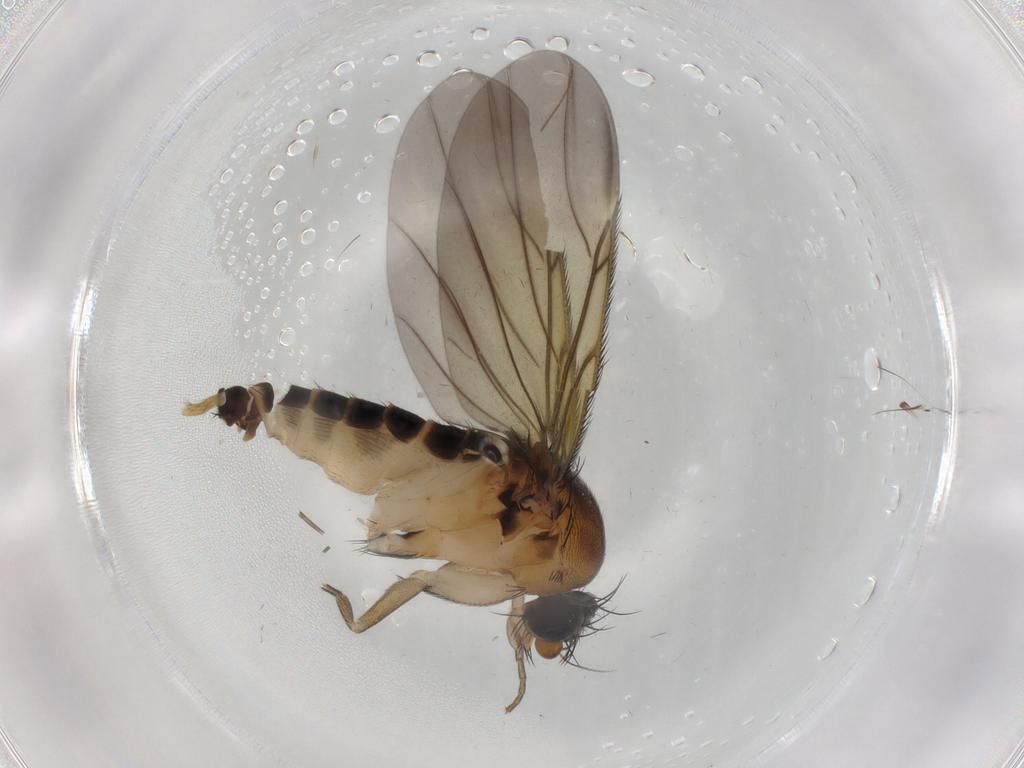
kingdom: Animalia
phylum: Arthropoda
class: Insecta
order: Diptera
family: Phoridae
